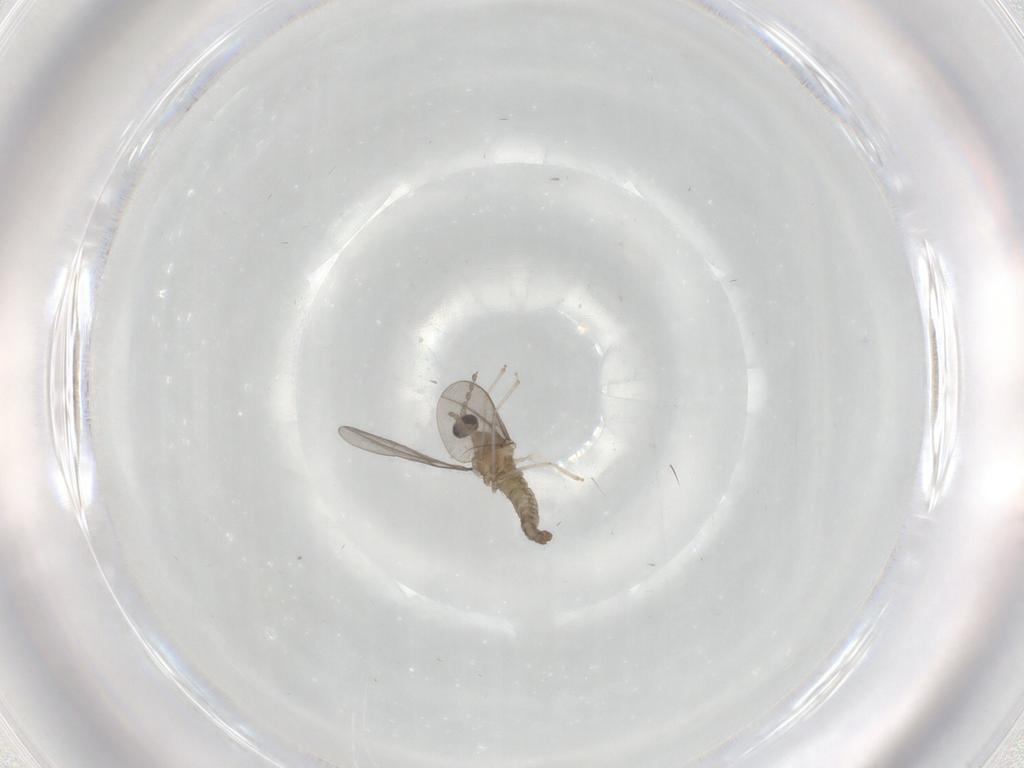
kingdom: Animalia
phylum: Arthropoda
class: Insecta
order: Diptera
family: Cecidomyiidae
